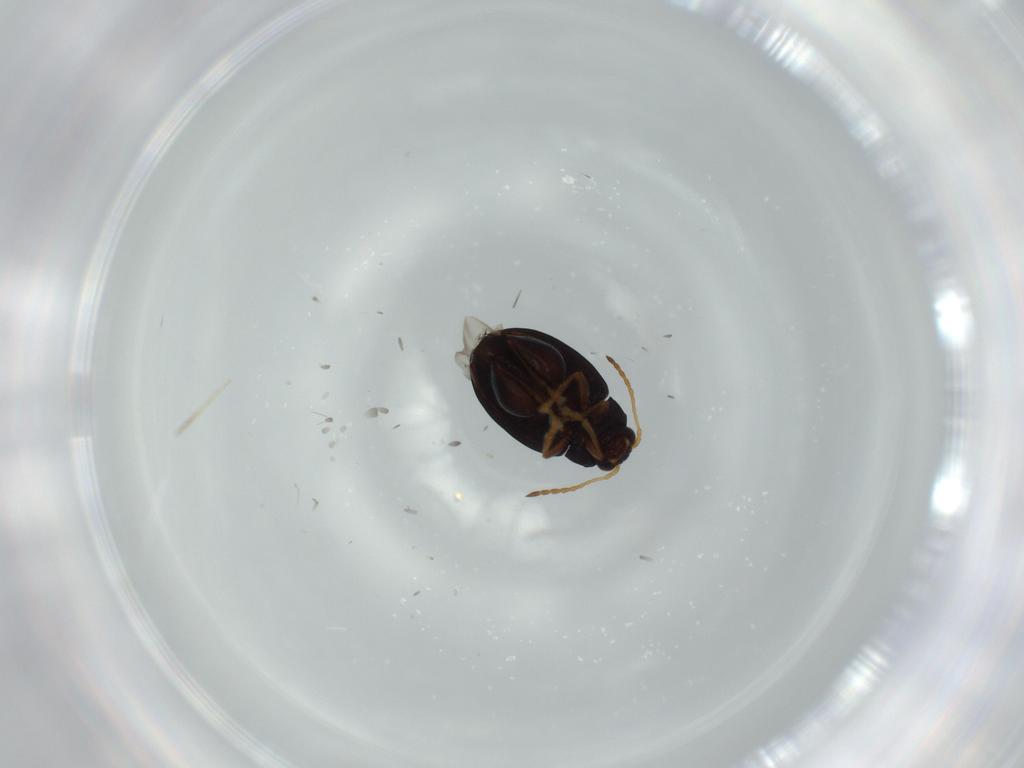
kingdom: Animalia
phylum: Arthropoda
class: Insecta
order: Coleoptera
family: Chrysomelidae
